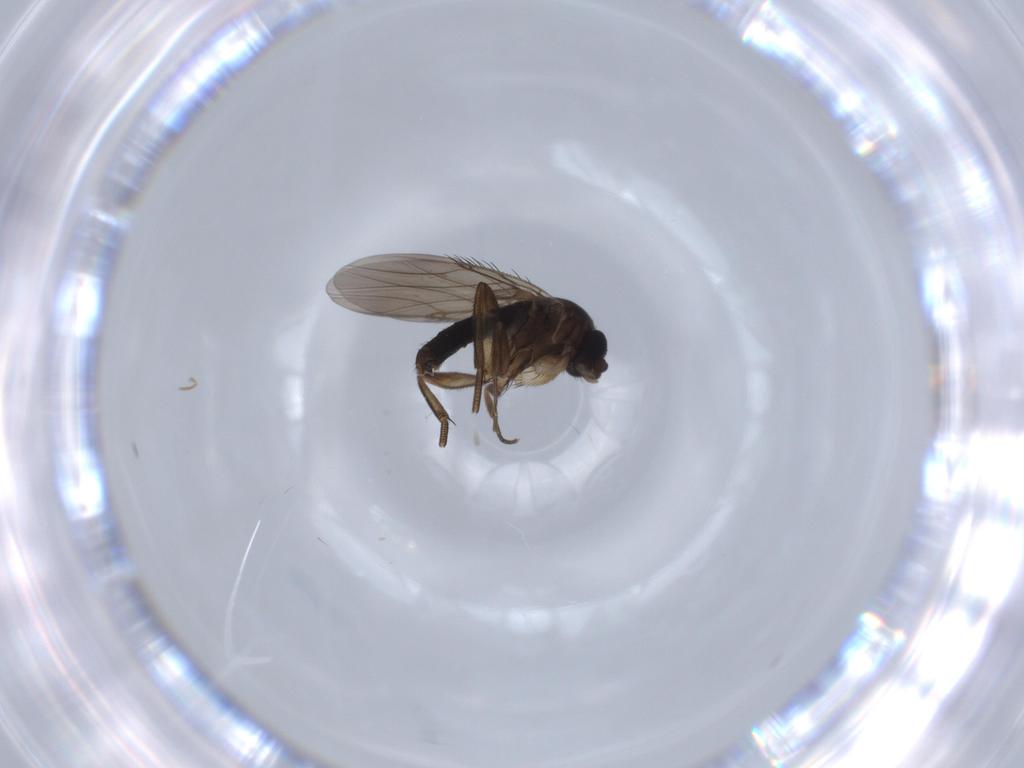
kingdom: Animalia
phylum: Arthropoda
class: Insecta
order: Diptera
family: Phoridae
